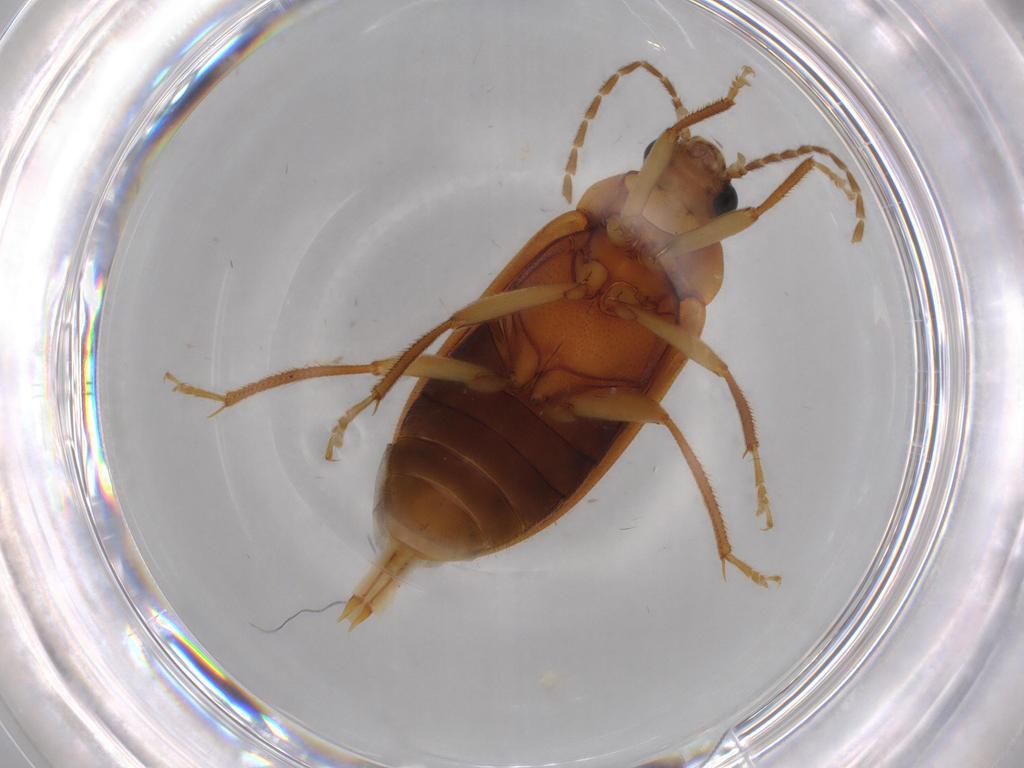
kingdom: Animalia
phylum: Arthropoda
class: Insecta
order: Coleoptera
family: Ptilodactylidae
